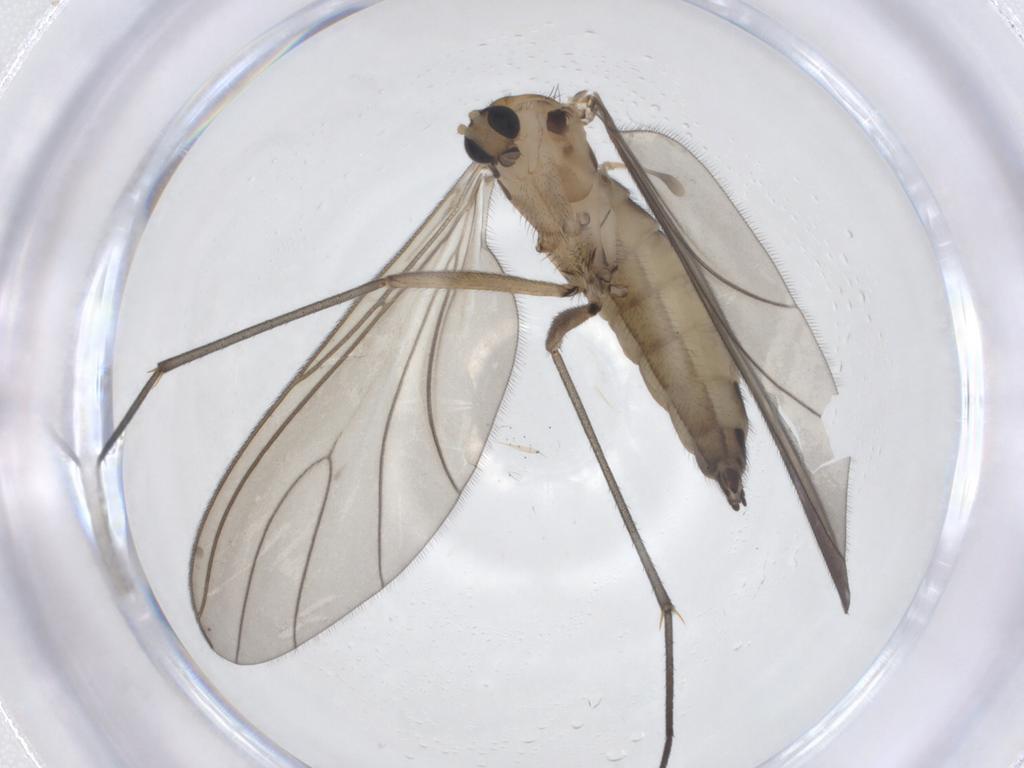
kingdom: Animalia
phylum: Arthropoda
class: Insecta
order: Diptera
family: Sciaridae
